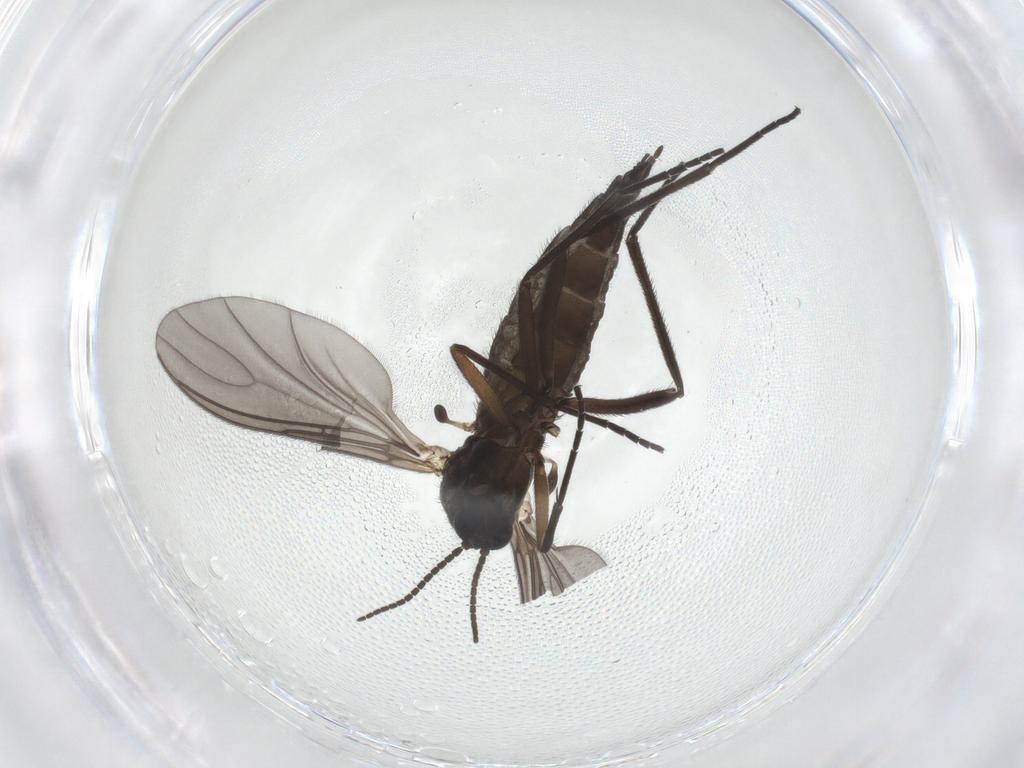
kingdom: Animalia
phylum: Arthropoda
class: Insecta
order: Diptera
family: Sciaridae
